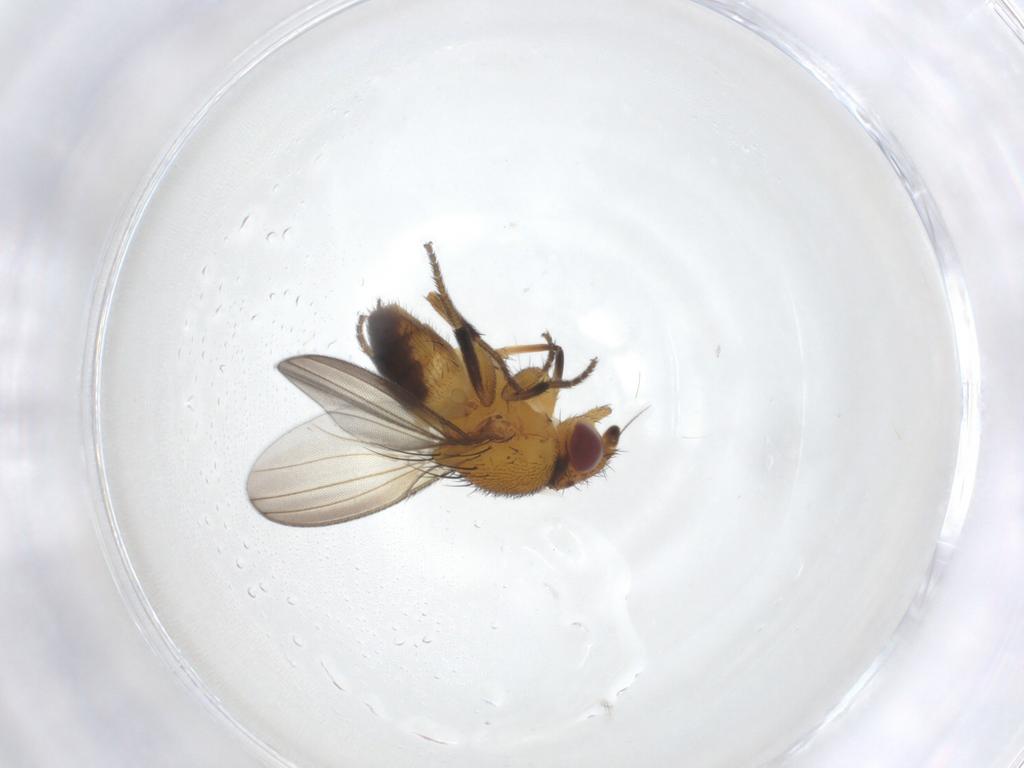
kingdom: Animalia
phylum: Arthropoda
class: Insecta
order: Diptera
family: Milichiidae
